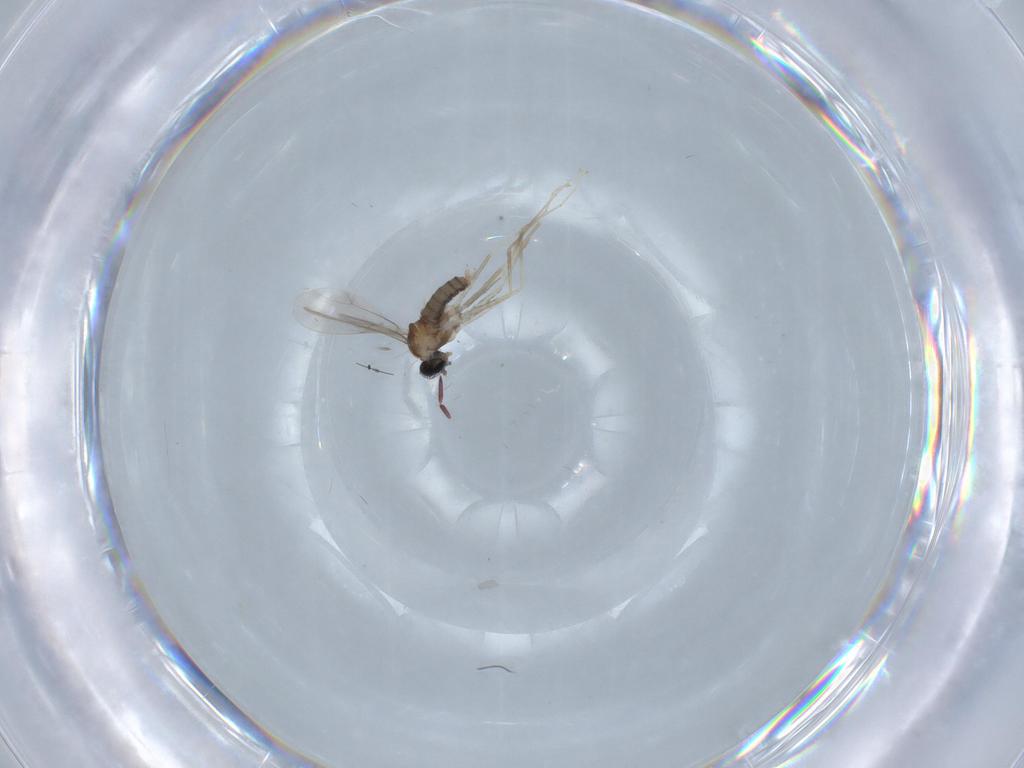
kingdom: Animalia
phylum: Arthropoda
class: Insecta
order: Diptera
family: Cecidomyiidae
